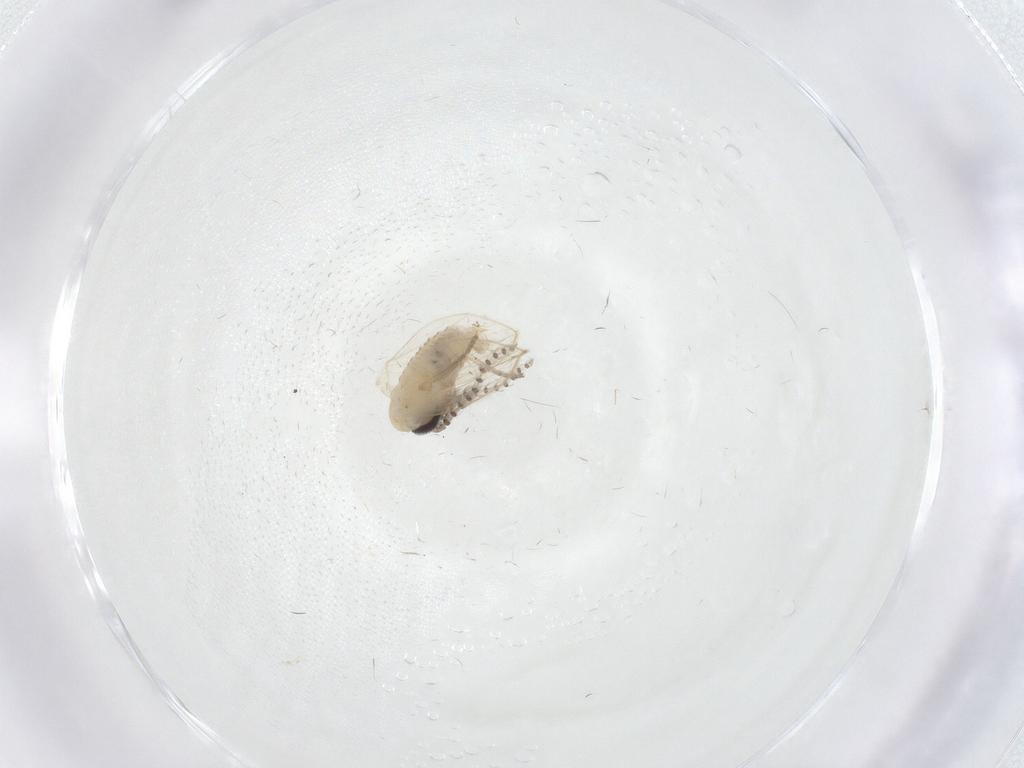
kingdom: Animalia
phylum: Arthropoda
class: Insecta
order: Diptera
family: Psychodidae
